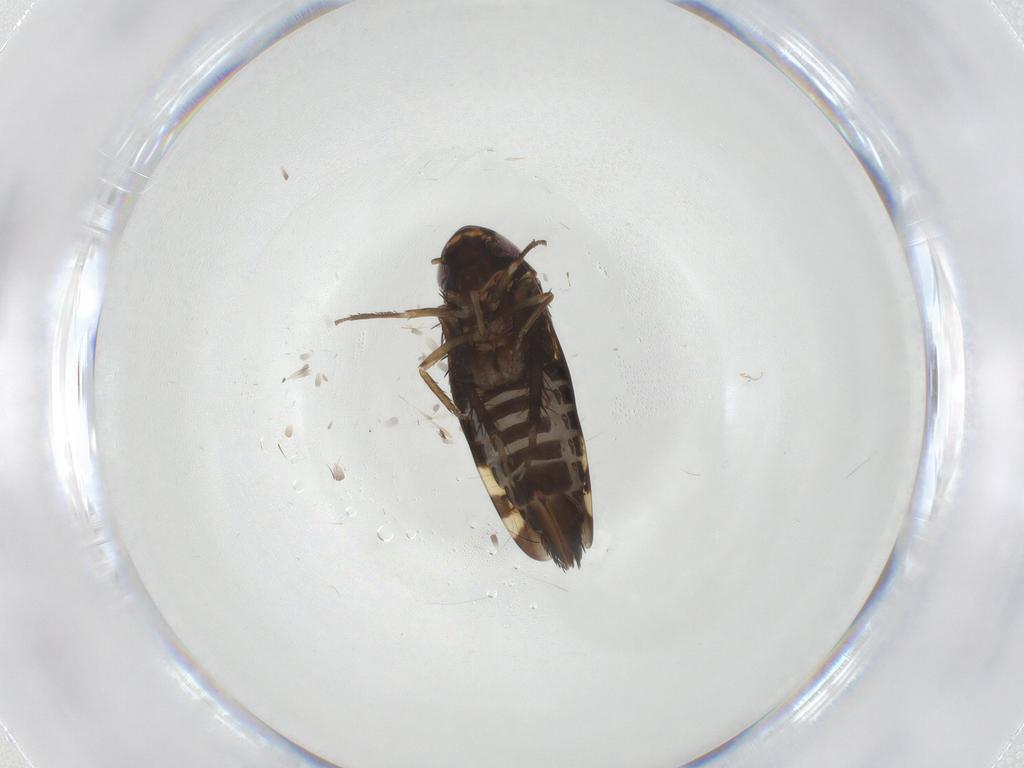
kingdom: Animalia
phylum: Arthropoda
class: Insecta
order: Hemiptera
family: Cicadellidae
